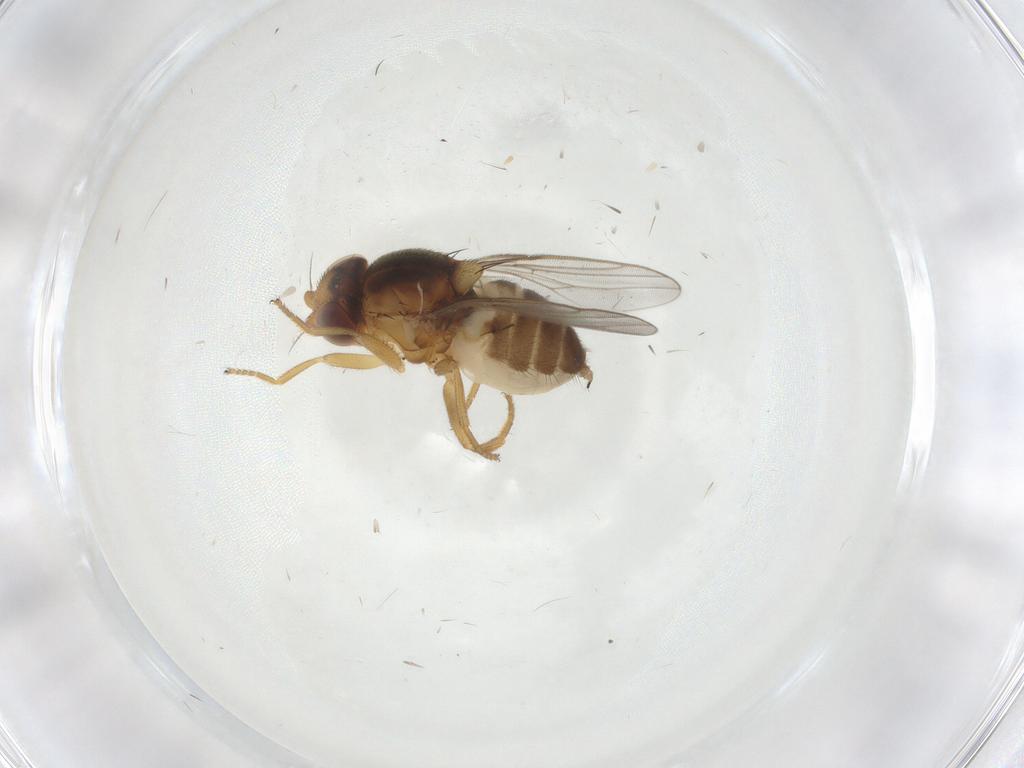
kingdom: Animalia
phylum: Arthropoda
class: Insecta
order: Diptera
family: Chloropidae
